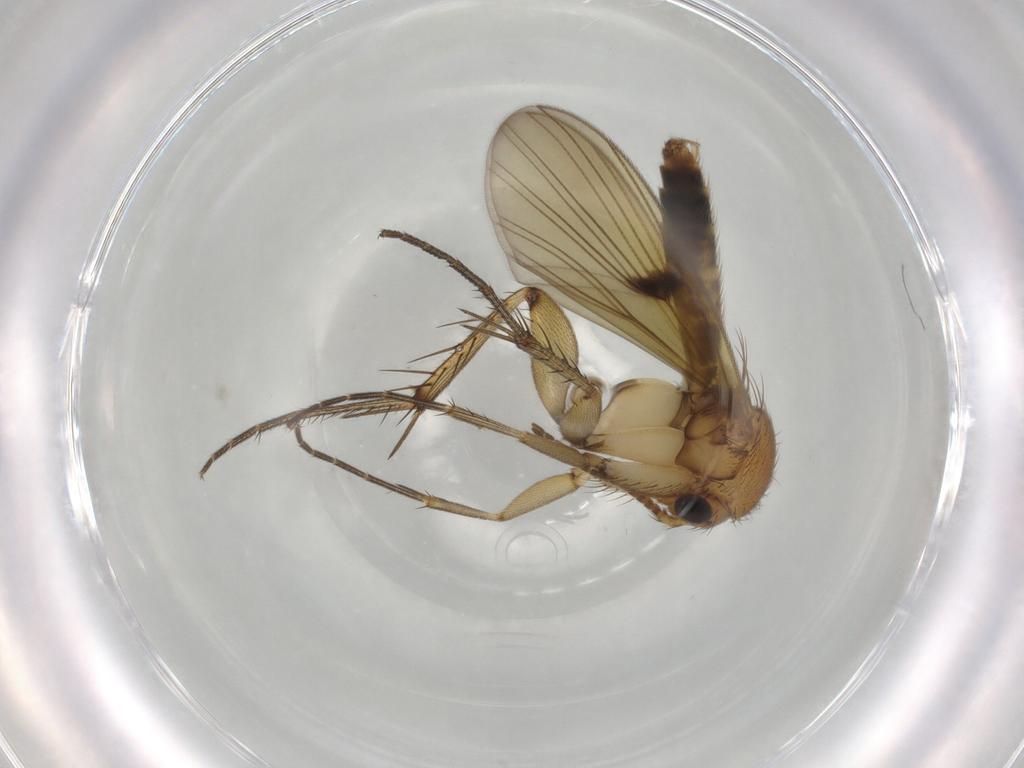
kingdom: Animalia
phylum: Arthropoda
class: Insecta
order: Diptera
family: Mycetophilidae
